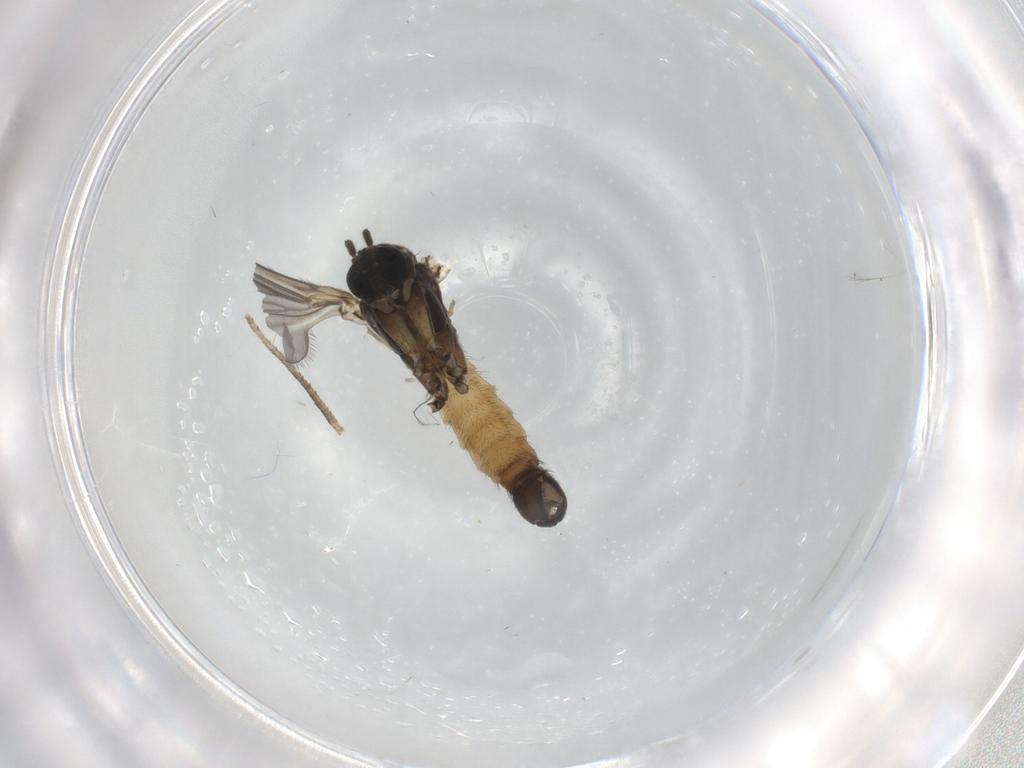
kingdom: Animalia
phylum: Arthropoda
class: Insecta
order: Diptera
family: Sciaridae
